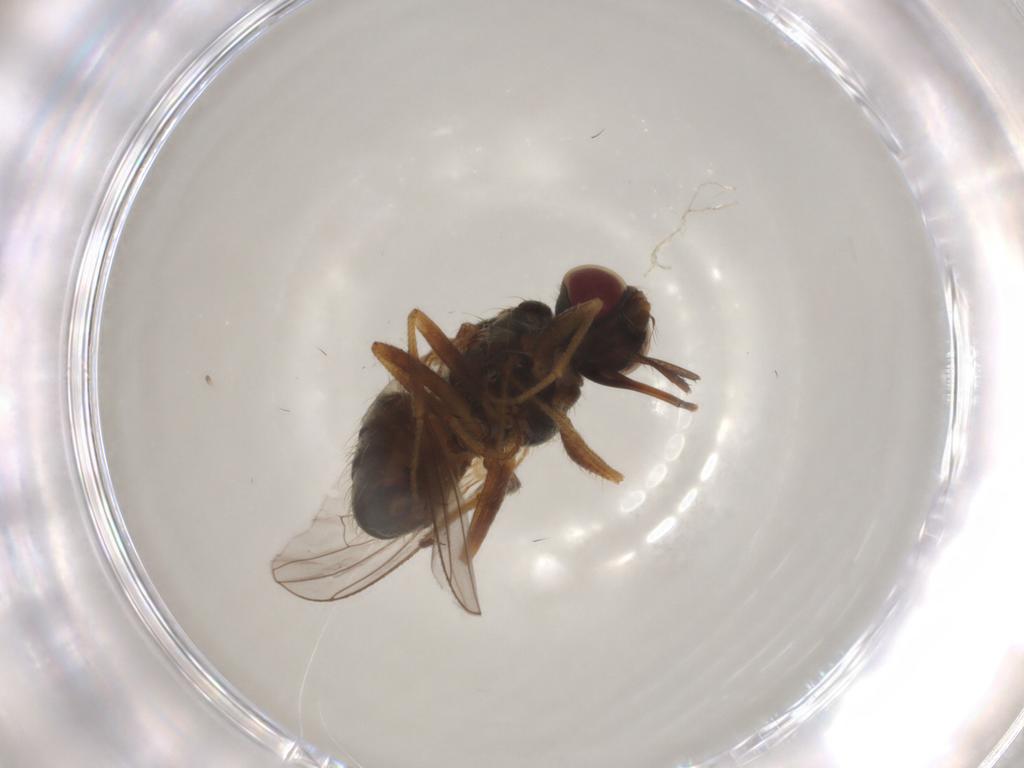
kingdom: Animalia
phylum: Arthropoda
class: Insecta
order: Diptera
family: Muscidae
